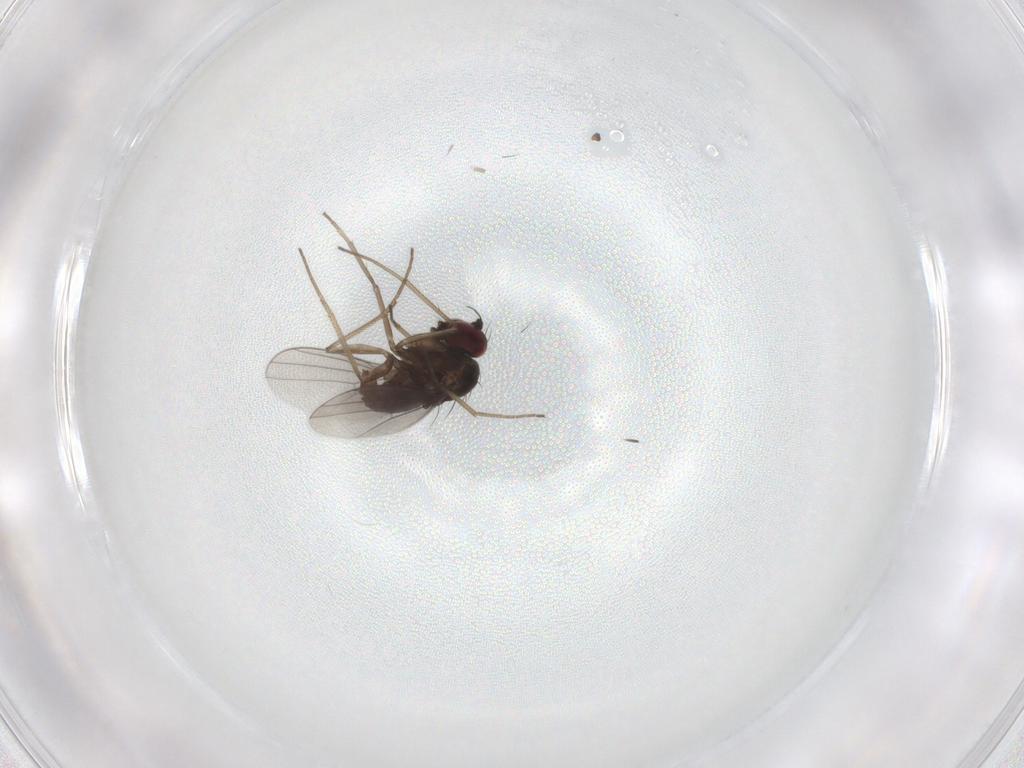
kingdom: Animalia
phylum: Arthropoda
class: Insecta
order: Diptera
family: Dolichopodidae
